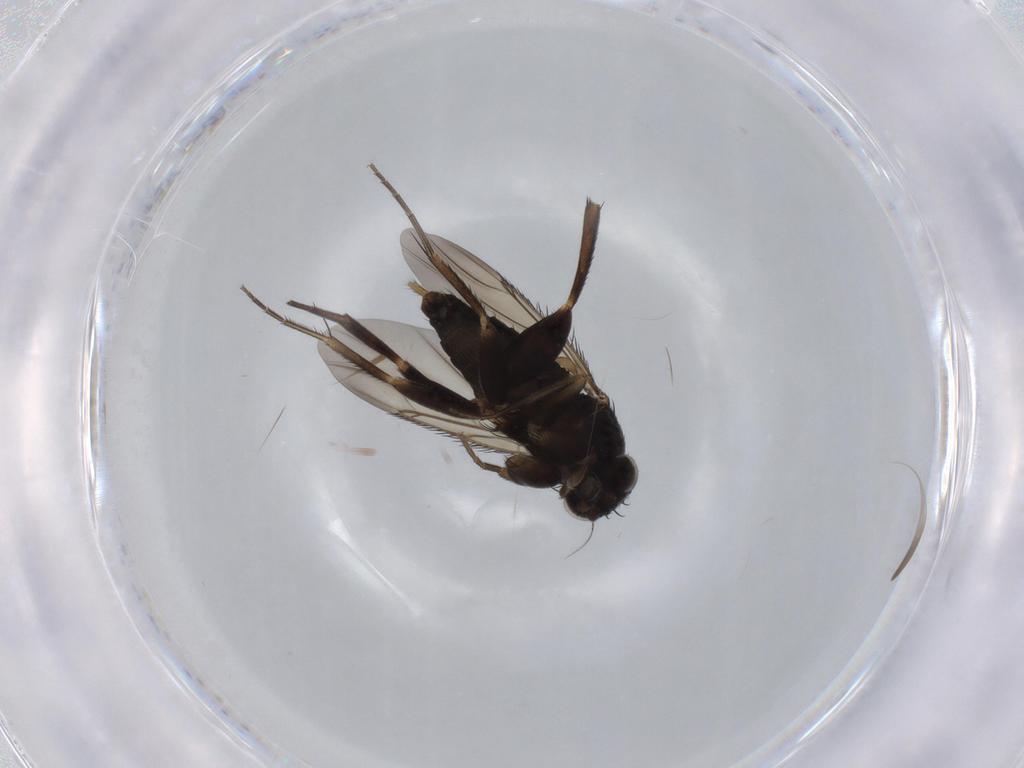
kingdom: Animalia
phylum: Arthropoda
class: Insecta
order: Diptera
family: Phoridae
